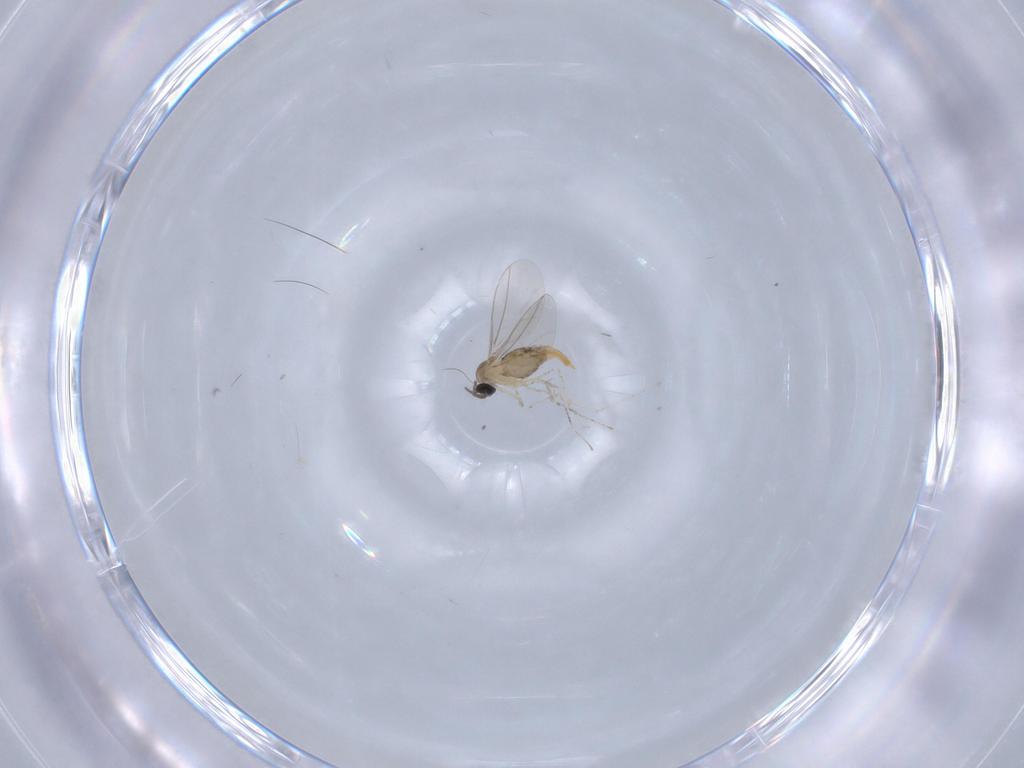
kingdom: Animalia
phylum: Arthropoda
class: Insecta
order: Diptera
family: Cecidomyiidae
